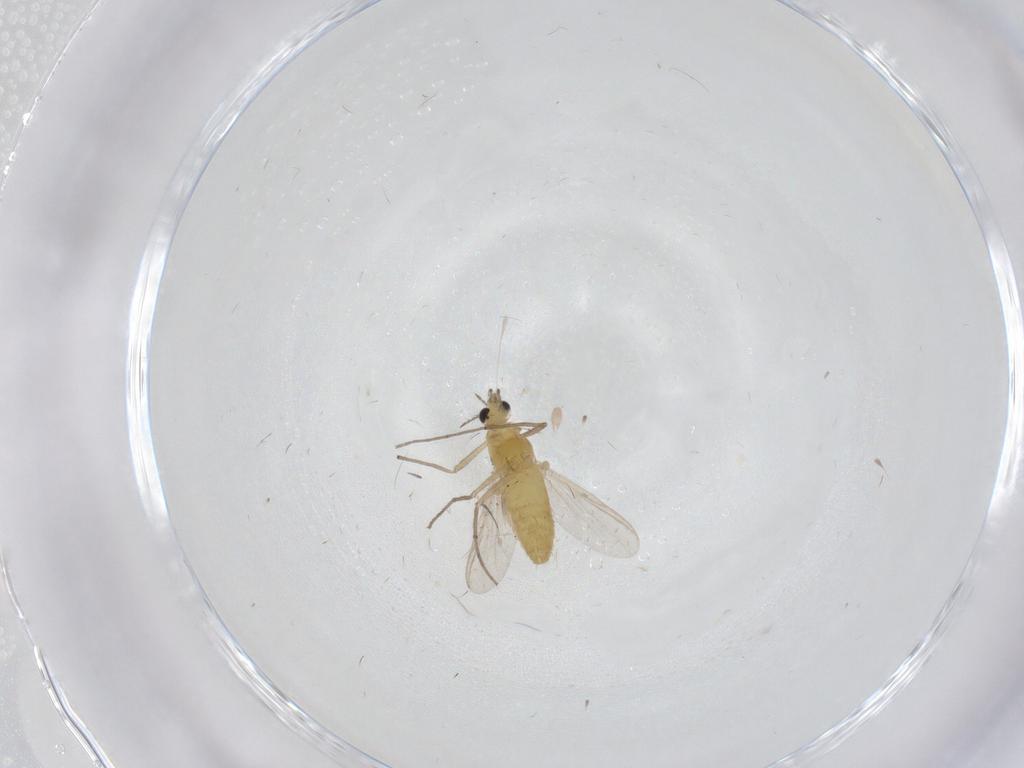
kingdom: Animalia
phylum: Arthropoda
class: Insecta
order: Diptera
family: Chironomidae
